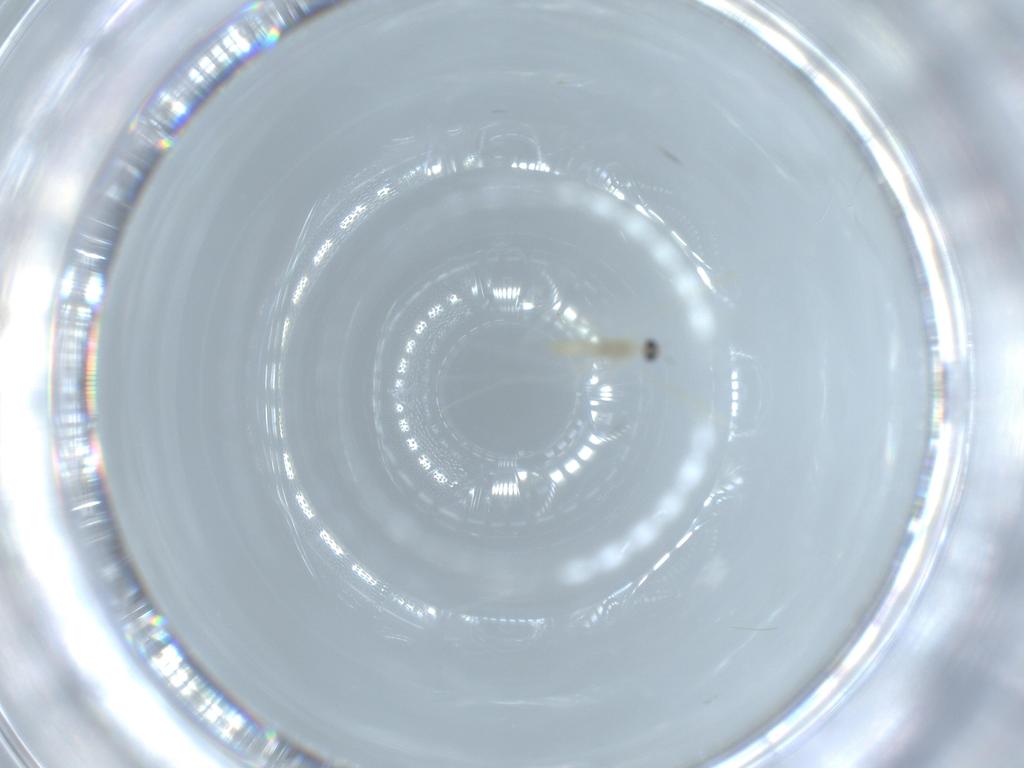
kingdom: Animalia
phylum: Arthropoda
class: Insecta
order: Diptera
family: Cecidomyiidae
